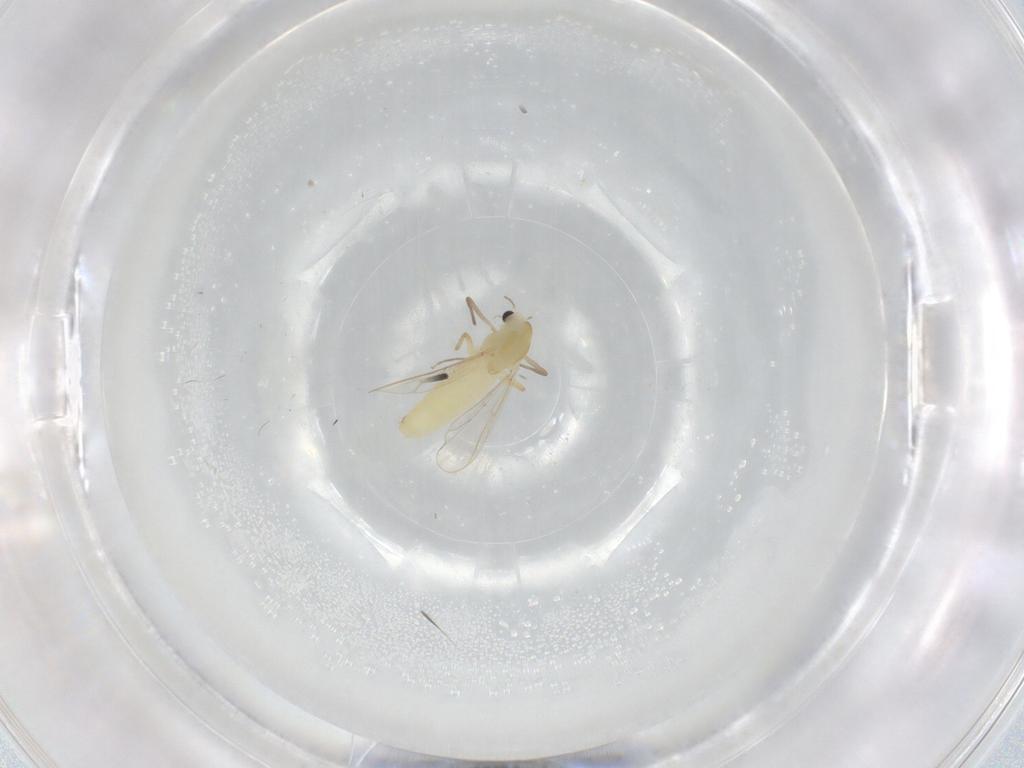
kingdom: Animalia
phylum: Arthropoda
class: Insecta
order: Diptera
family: Chironomidae
